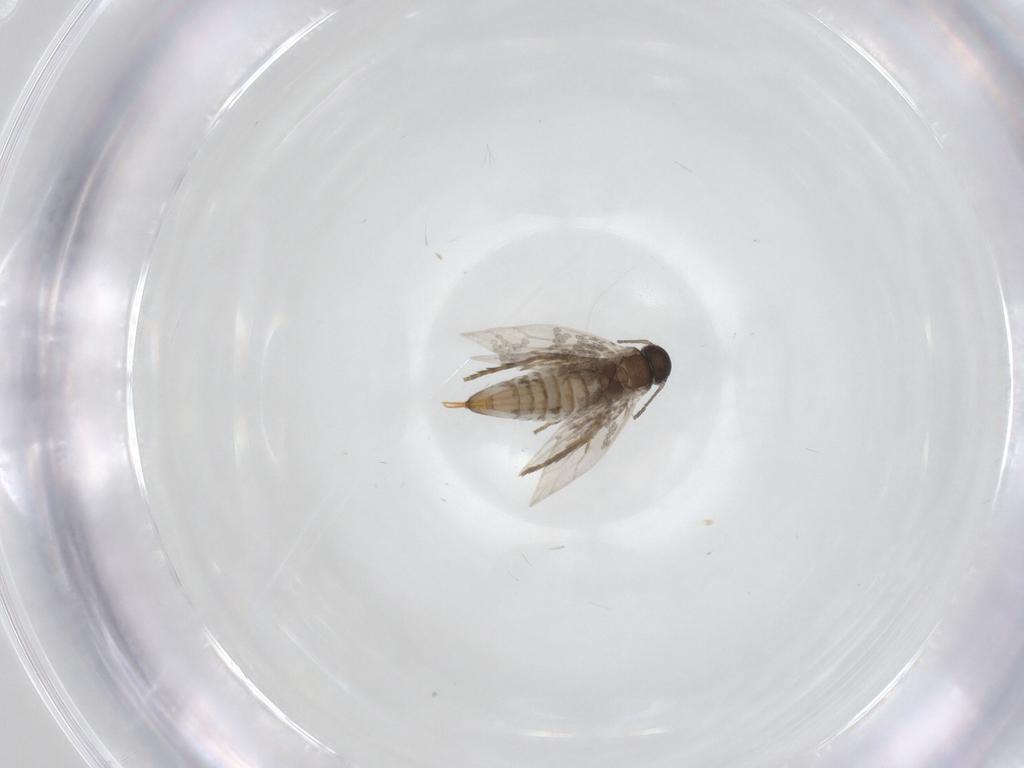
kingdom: Animalia
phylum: Arthropoda
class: Insecta
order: Lepidoptera
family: Heliozelidae
